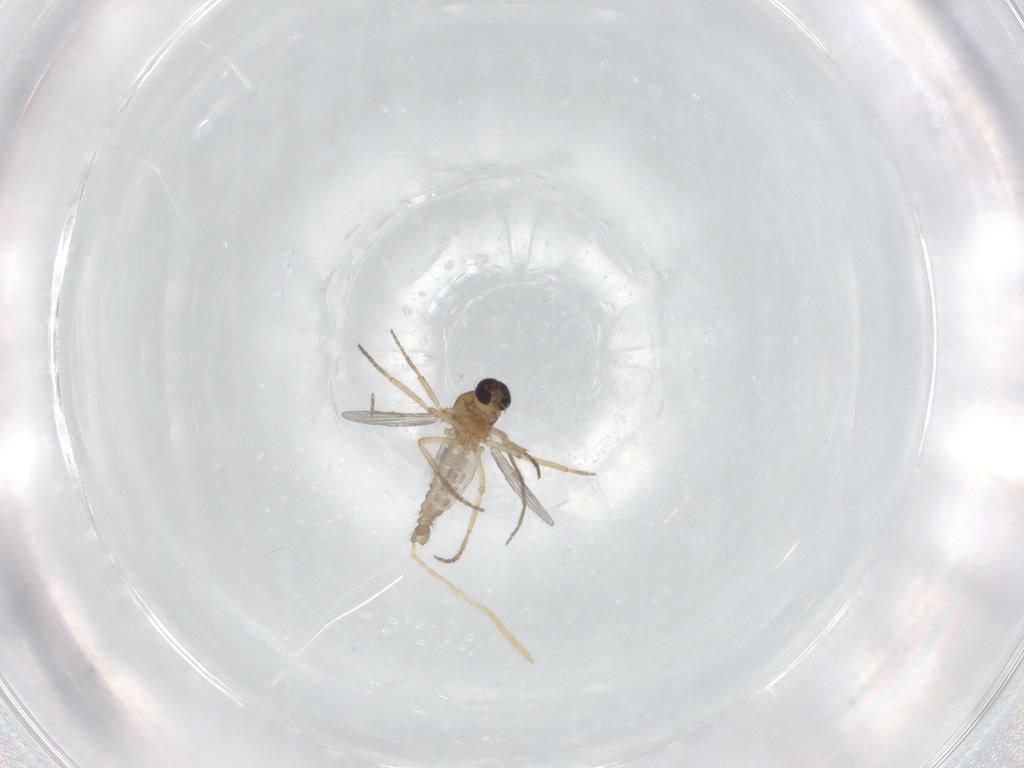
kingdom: Animalia
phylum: Arthropoda
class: Insecta
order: Diptera
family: Ceratopogonidae
